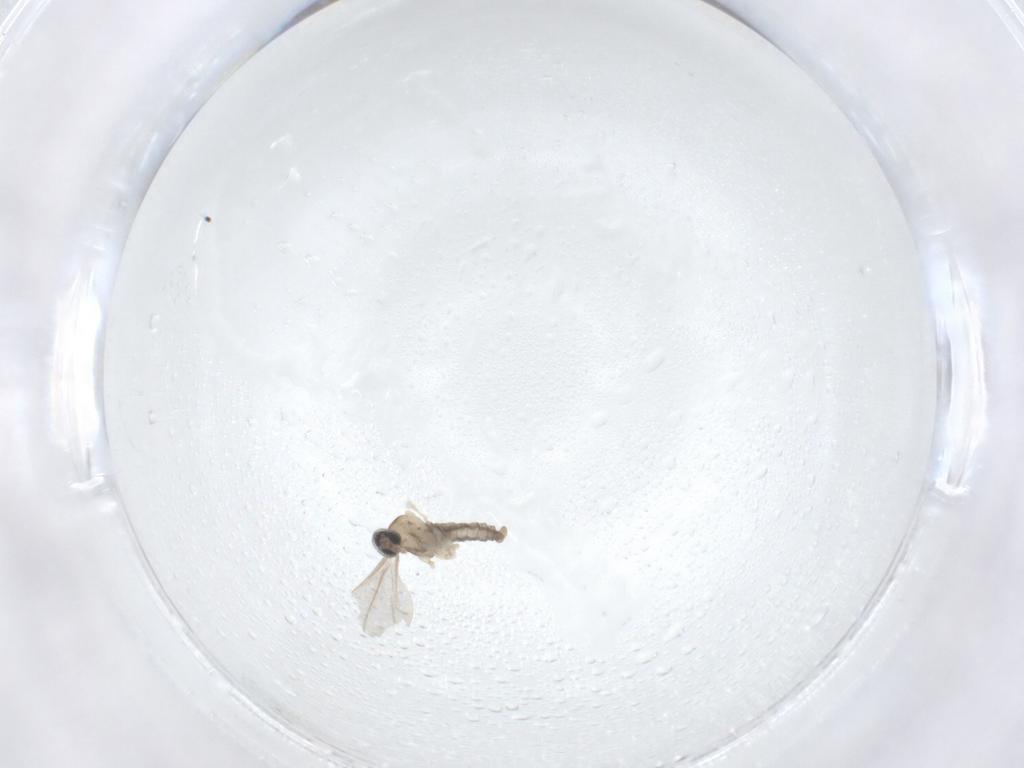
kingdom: Animalia
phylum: Arthropoda
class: Insecta
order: Diptera
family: Cecidomyiidae
